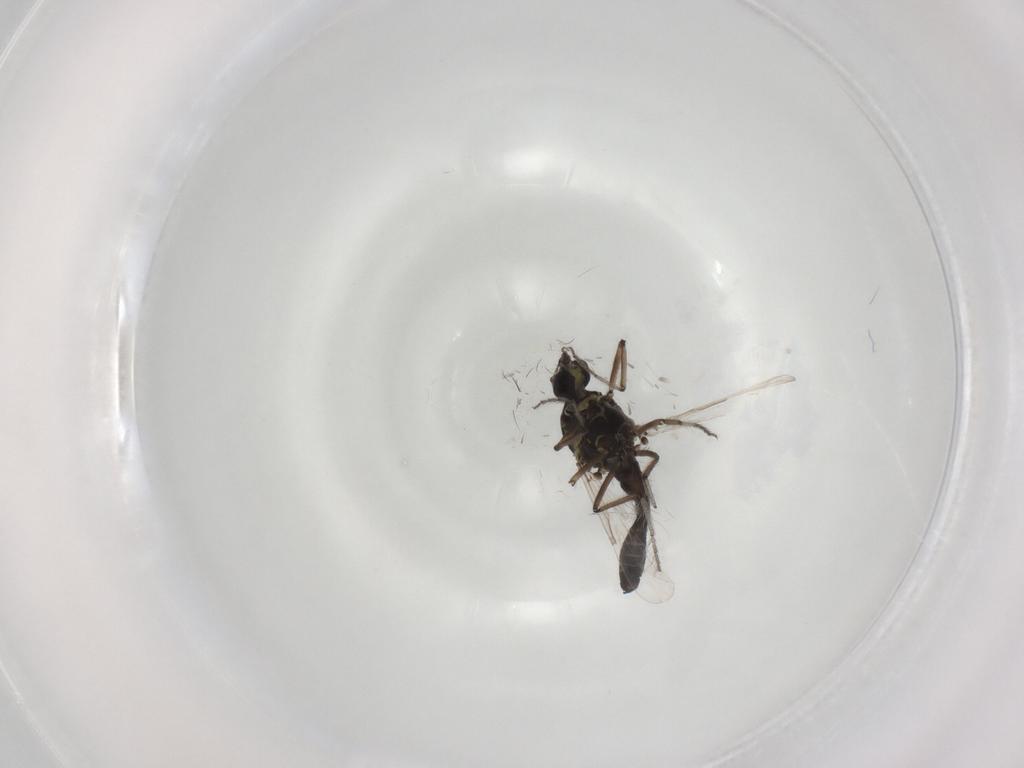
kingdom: Animalia
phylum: Arthropoda
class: Insecta
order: Diptera
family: Ceratopogonidae
